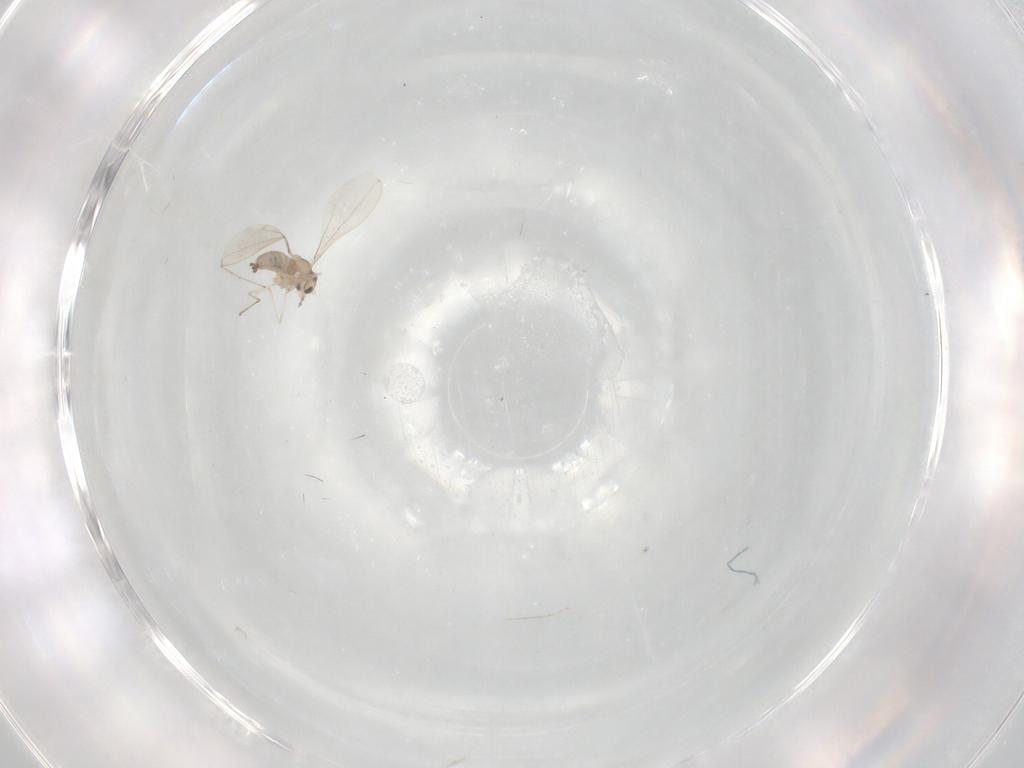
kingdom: Animalia
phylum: Arthropoda
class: Insecta
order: Diptera
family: Cecidomyiidae
